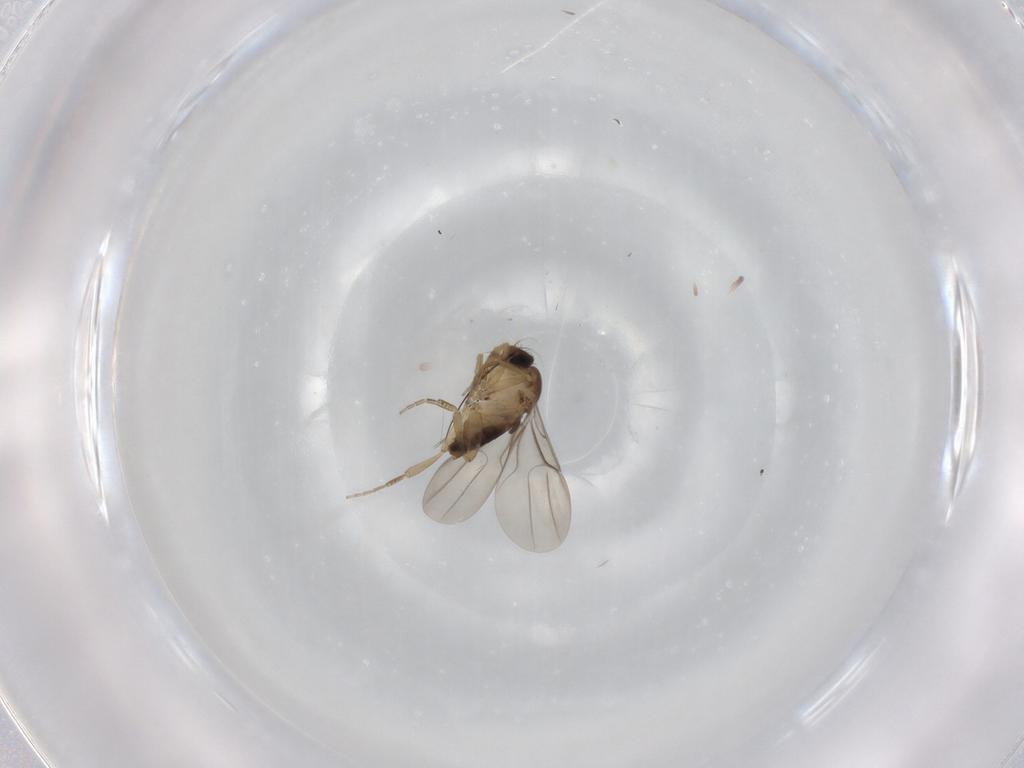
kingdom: Animalia
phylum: Arthropoda
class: Insecta
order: Diptera
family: Phoridae
